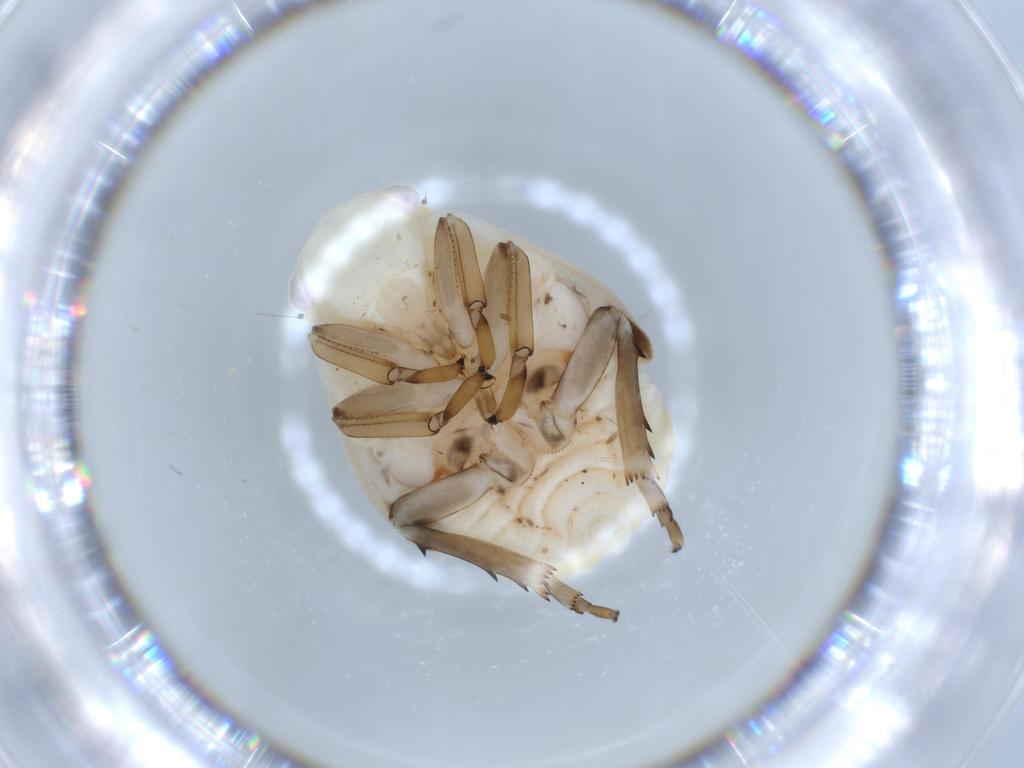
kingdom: Animalia
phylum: Arthropoda
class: Insecta
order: Hemiptera
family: Flatidae
